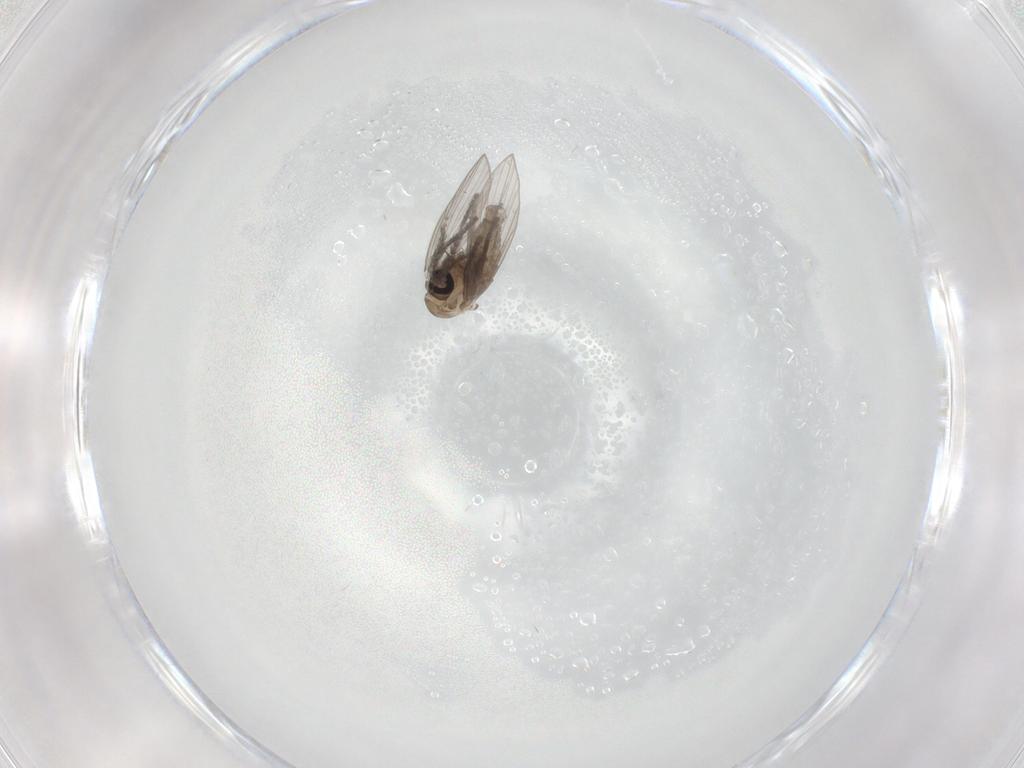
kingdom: Animalia
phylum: Arthropoda
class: Insecta
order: Diptera
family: Psychodidae
